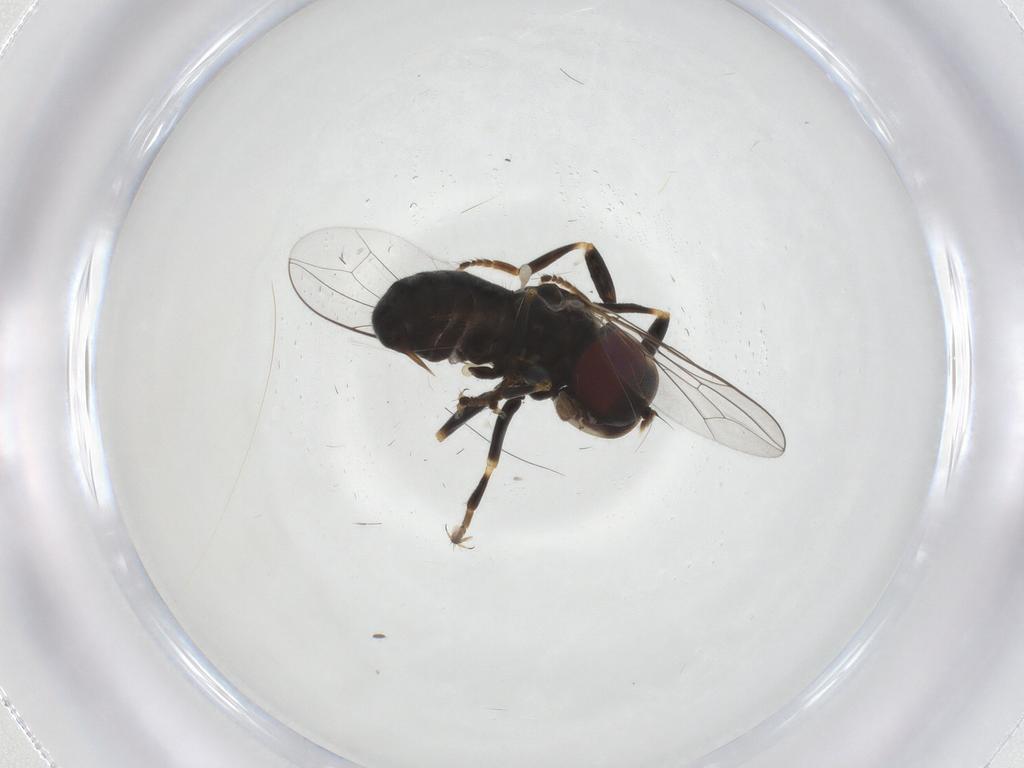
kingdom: Animalia
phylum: Arthropoda
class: Insecta
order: Diptera
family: Pipunculidae
